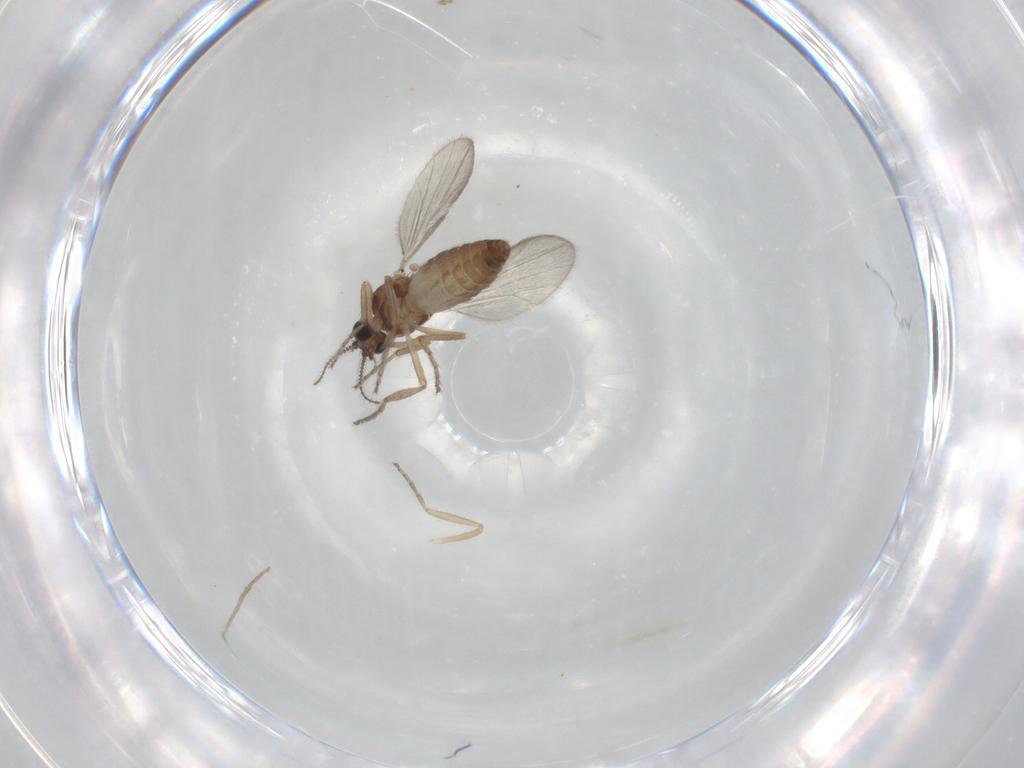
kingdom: Animalia
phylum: Arthropoda
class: Insecta
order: Diptera
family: Ceratopogonidae
